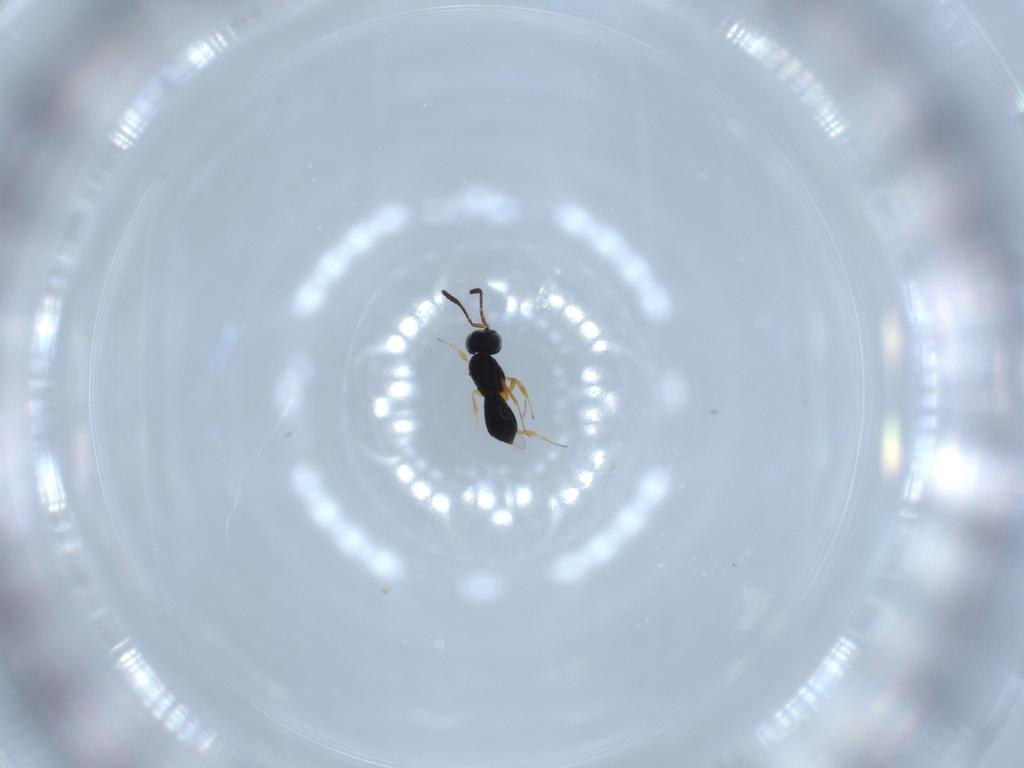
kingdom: Animalia
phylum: Arthropoda
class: Insecta
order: Hymenoptera
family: Scelionidae
